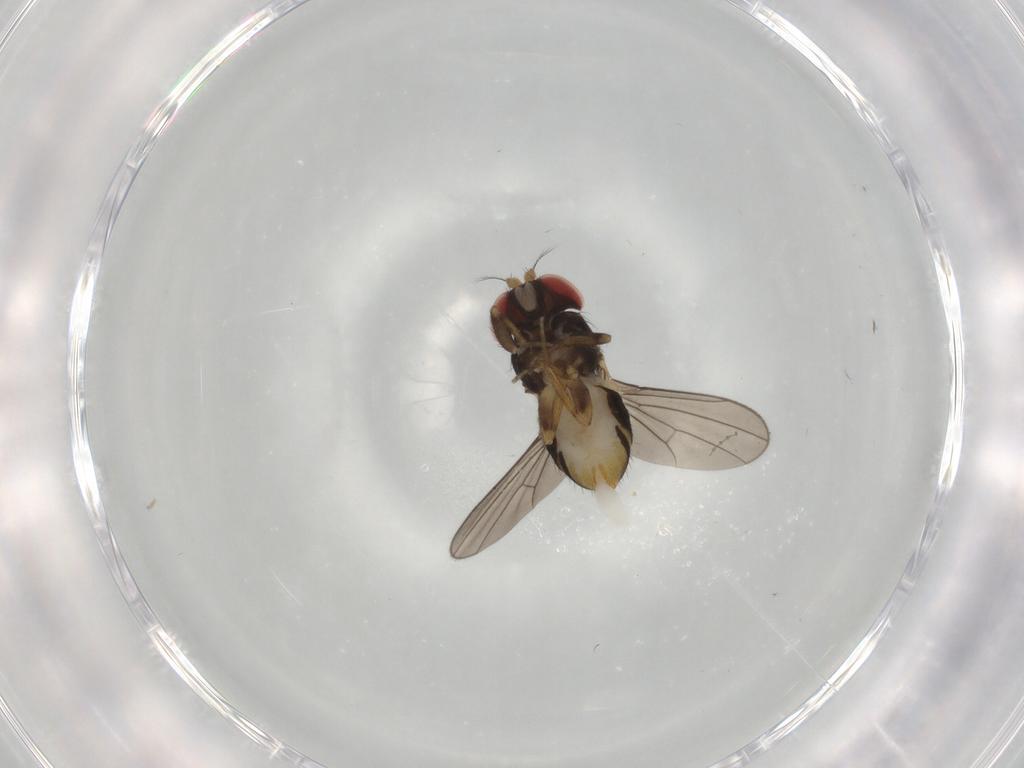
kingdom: Animalia
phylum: Arthropoda
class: Insecta
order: Diptera
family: Drosophilidae
